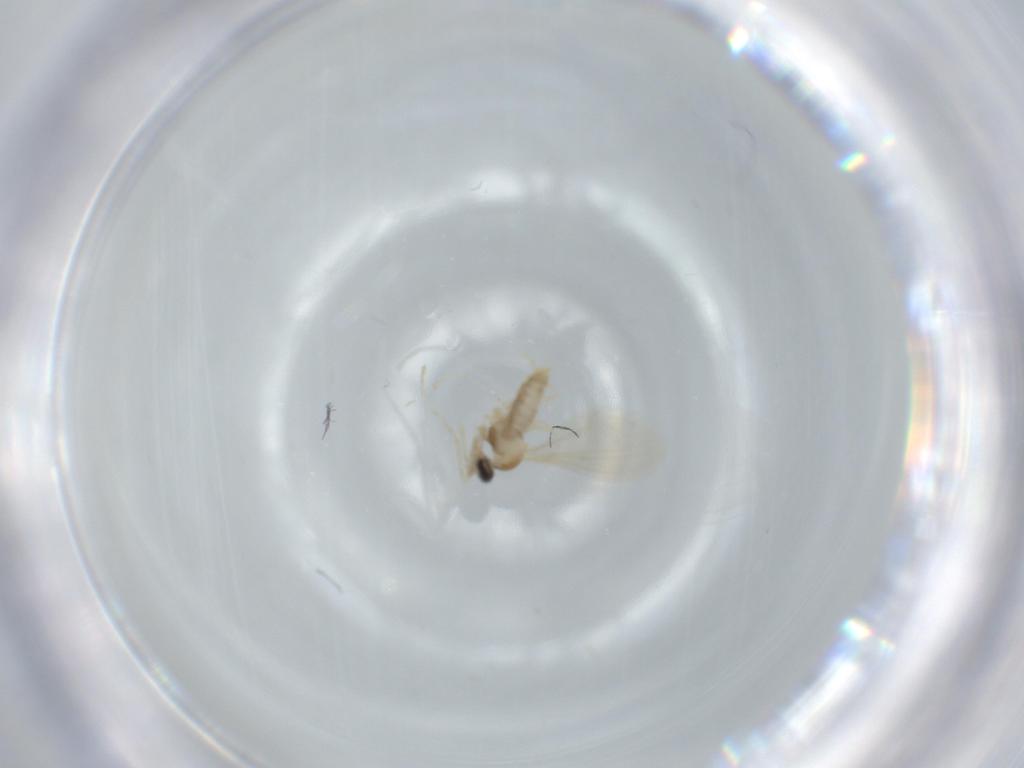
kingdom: Animalia
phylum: Arthropoda
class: Insecta
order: Diptera
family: Cecidomyiidae
